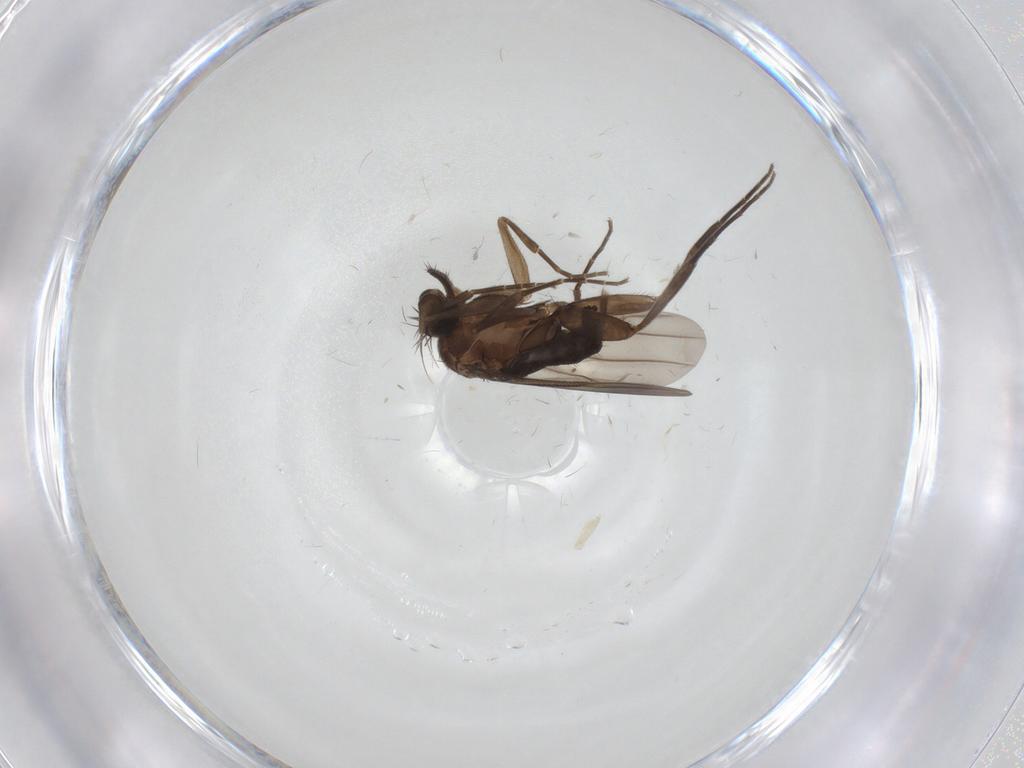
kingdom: Animalia
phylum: Arthropoda
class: Insecta
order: Diptera
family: Phoridae
